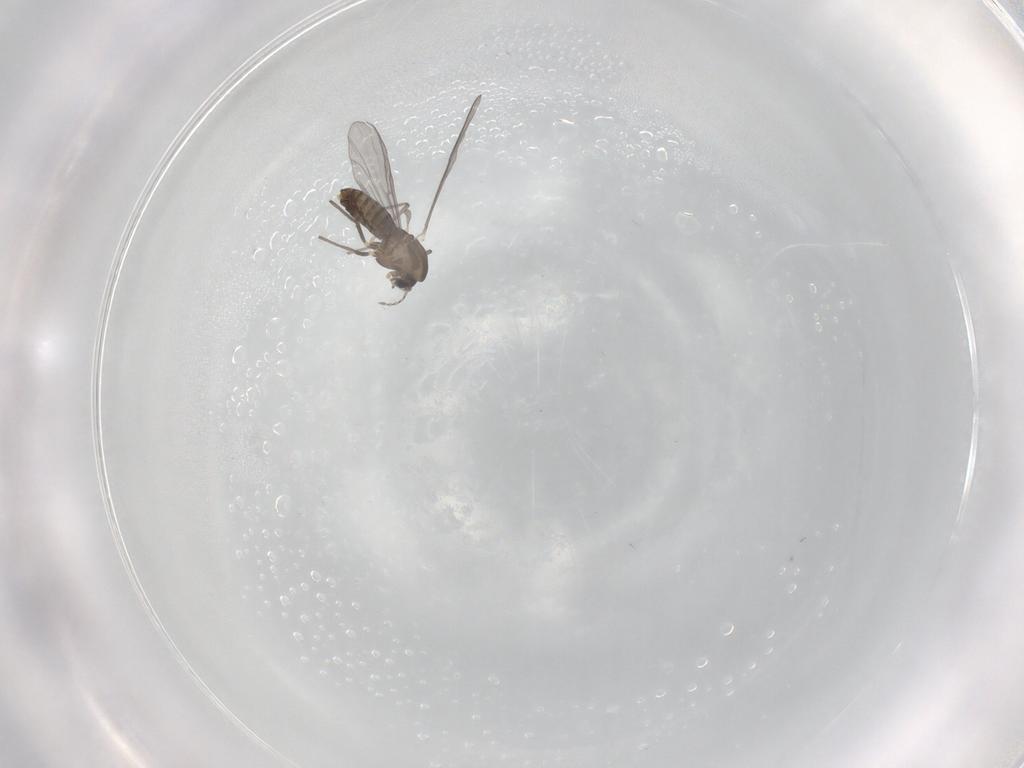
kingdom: Animalia
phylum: Arthropoda
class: Insecta
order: Diptera
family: Chironomidae
